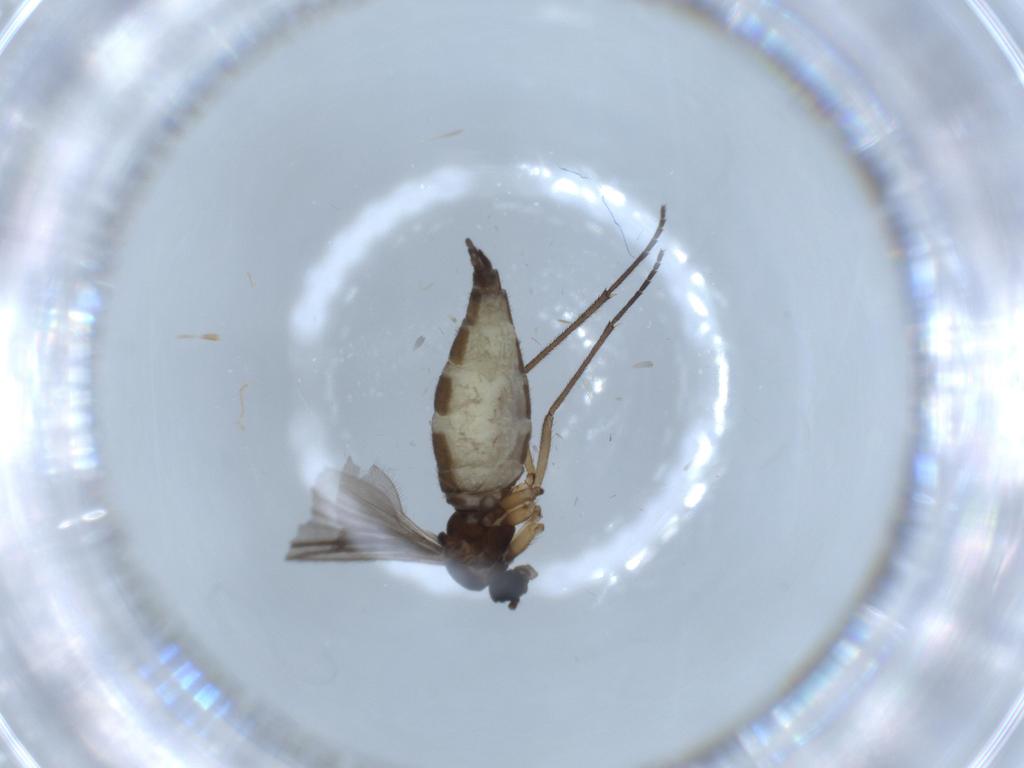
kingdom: Animalia
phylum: Arthropoda
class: Insecta
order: Diptera
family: Sciaridae
